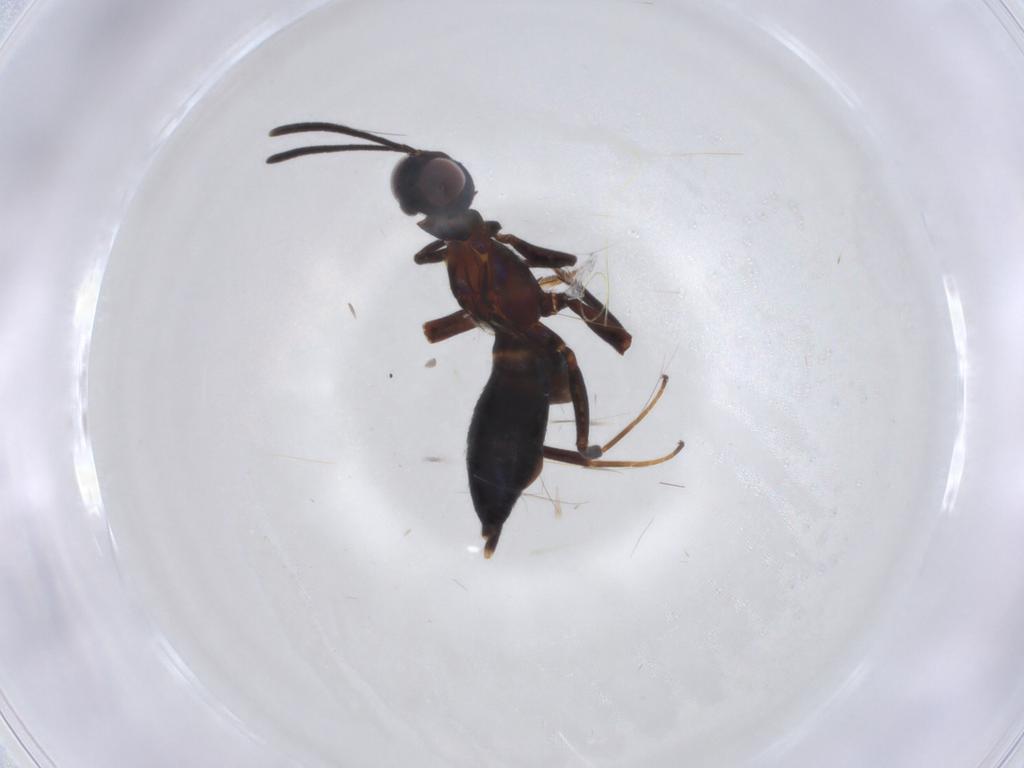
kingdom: Animalia
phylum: Arthropoda
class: Insecta
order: Hymenoptera
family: Eupelmidae
